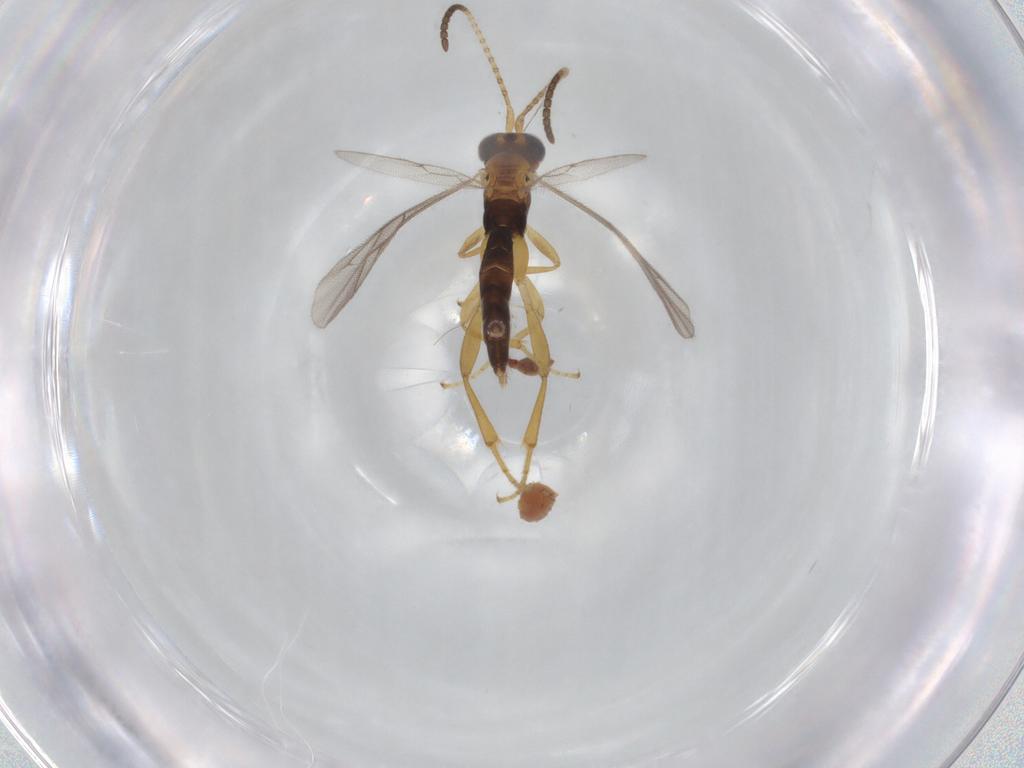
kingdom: Animalia
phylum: Arthropoda
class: Insecta
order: Hymenoptera
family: Ichneumonidae
